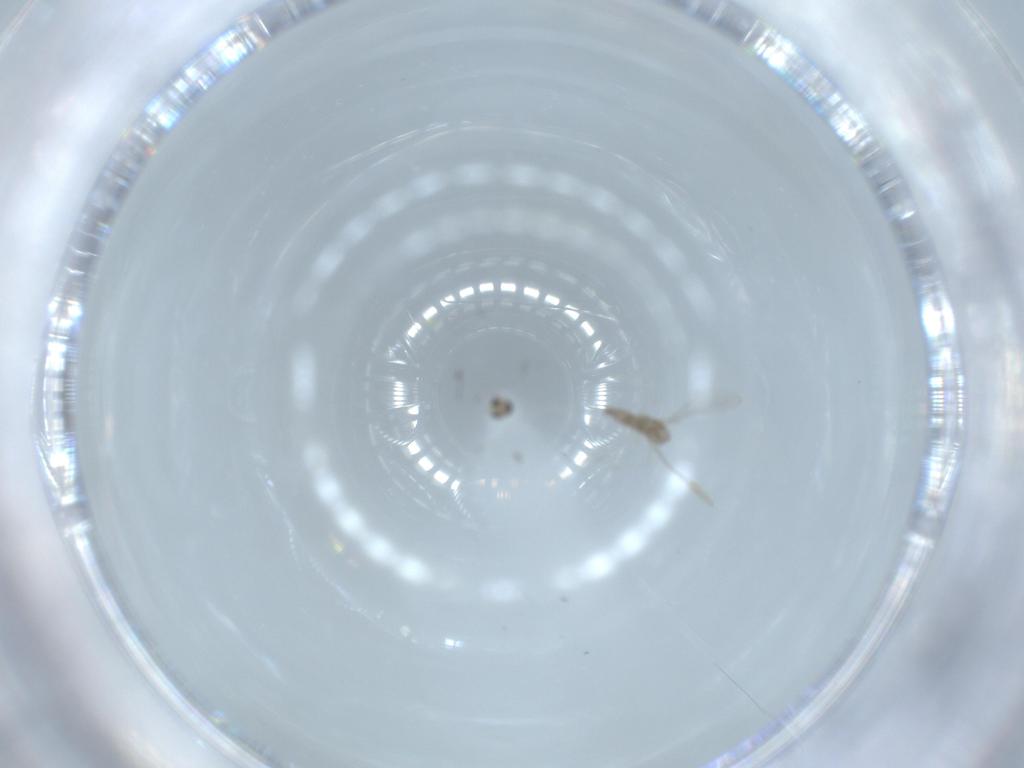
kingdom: Animalia
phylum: Arthropoda
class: Insecta
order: Diptera
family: Cecidomyiidae
